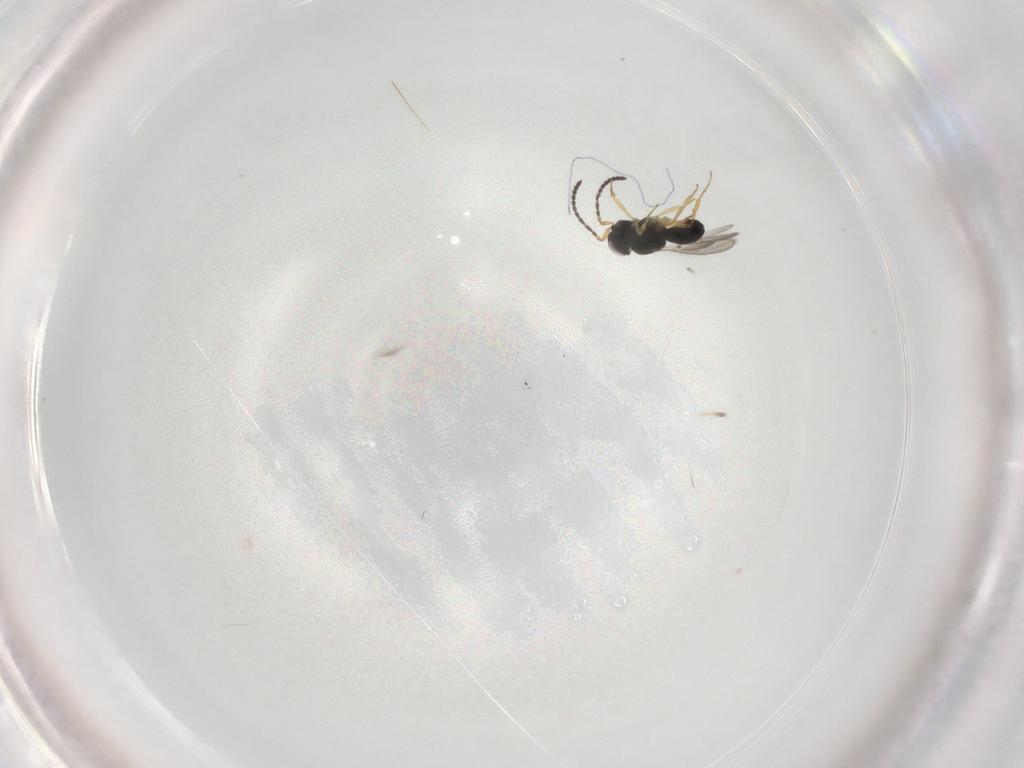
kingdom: Animalia
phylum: Arthropoda
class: Insecta
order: Hymenoptera
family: Scelionidae
